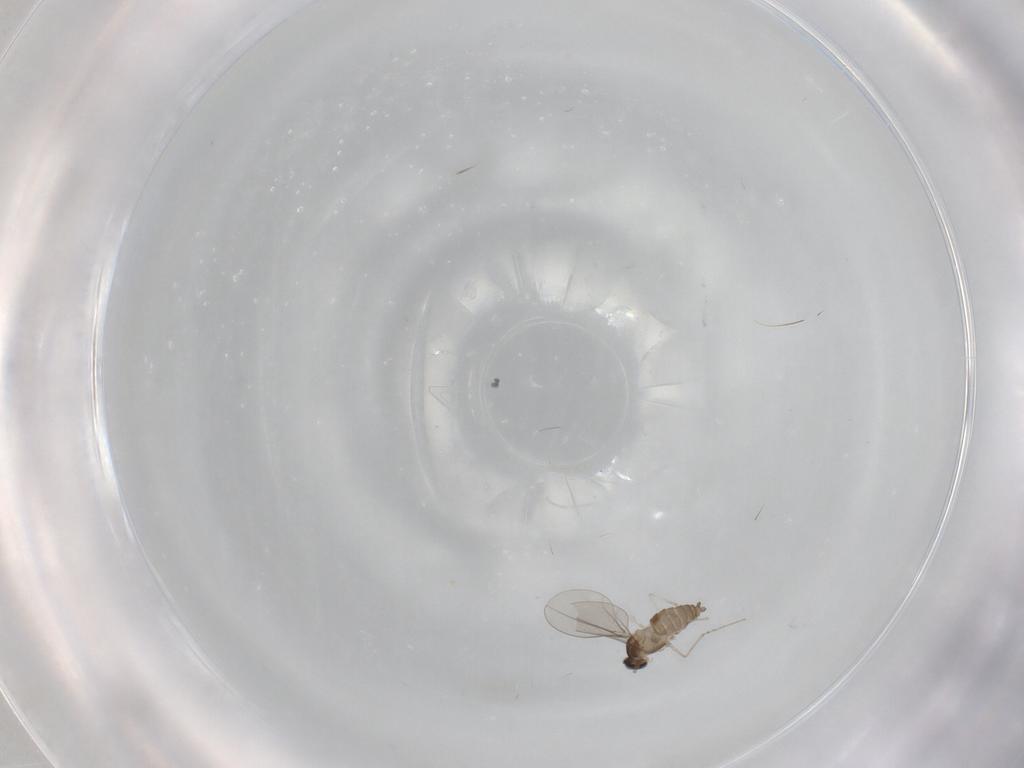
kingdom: Animalia
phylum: Arthropoda
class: Insecta
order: Diptera
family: Cecidomyiidae
